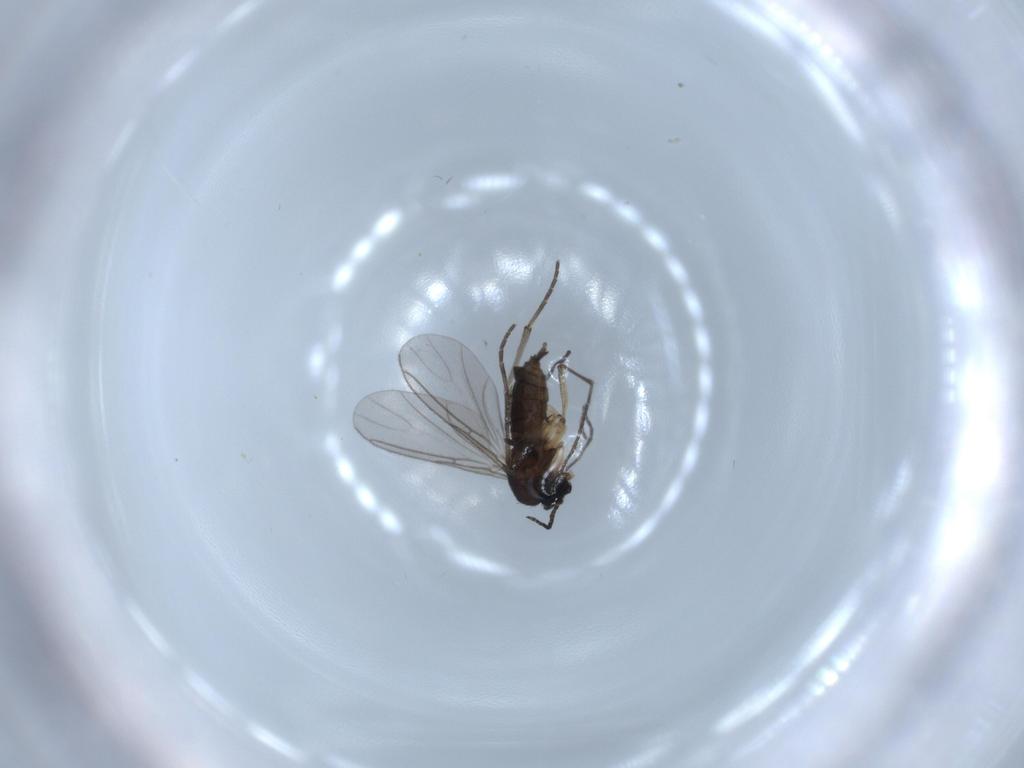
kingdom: Animalia
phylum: Arthropoda
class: Insecta
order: Diptera
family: Sciaridae
